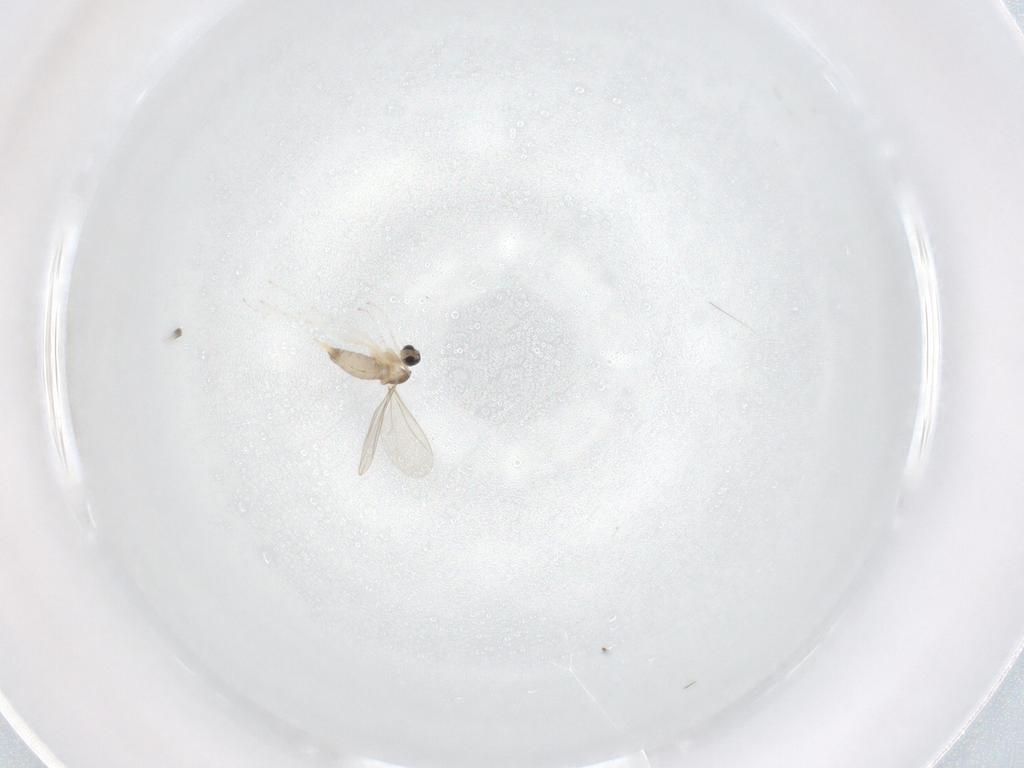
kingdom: Animalia
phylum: Arthropoda
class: Insecta
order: Diptera
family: Cecidomyiidae
